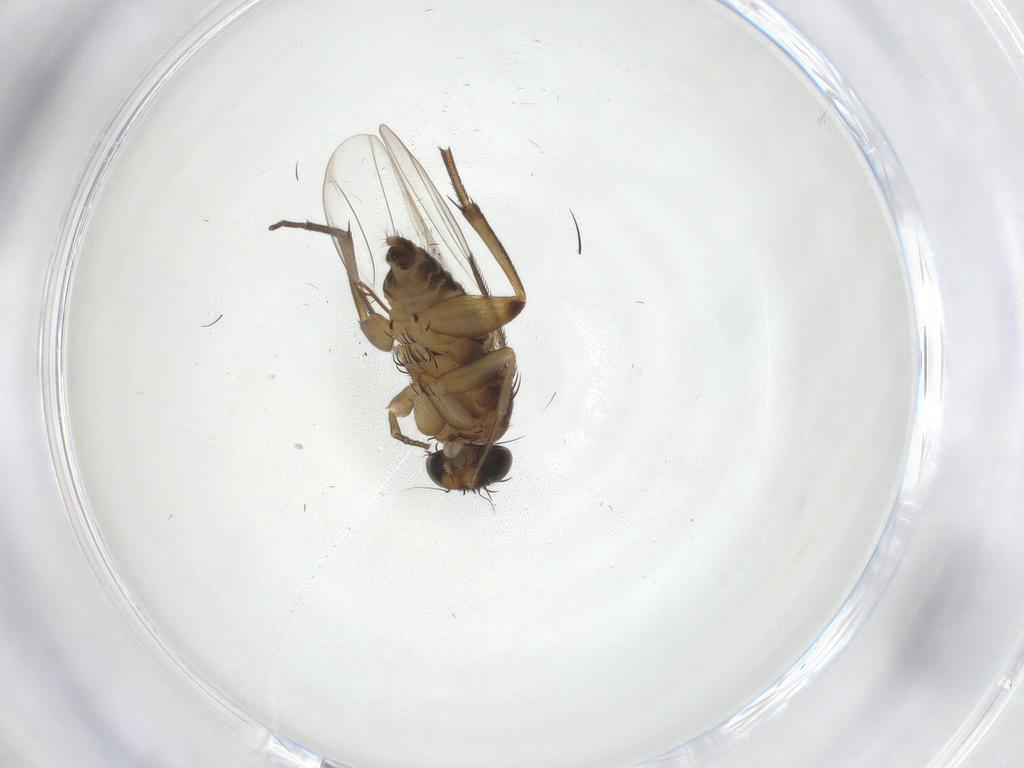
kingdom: Animalia
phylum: Arthropoda
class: Insecta
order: Diptera
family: Phoridae
